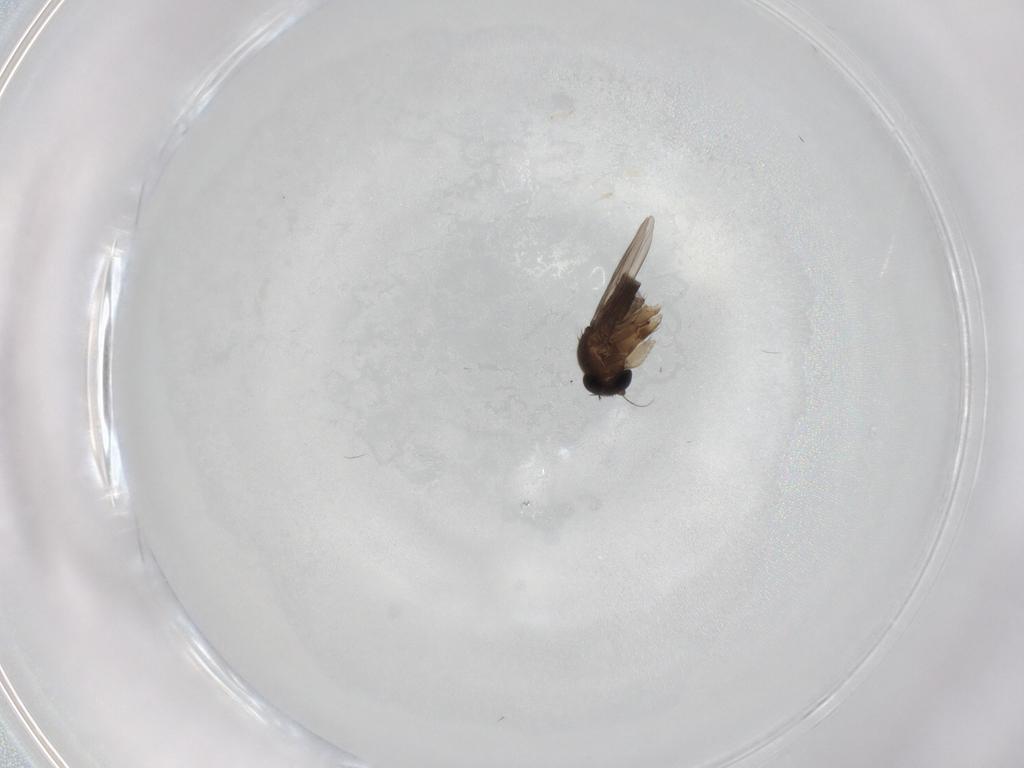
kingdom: Animalia
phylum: Arthropoda
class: Insecta
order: Diptera
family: Phoridae
